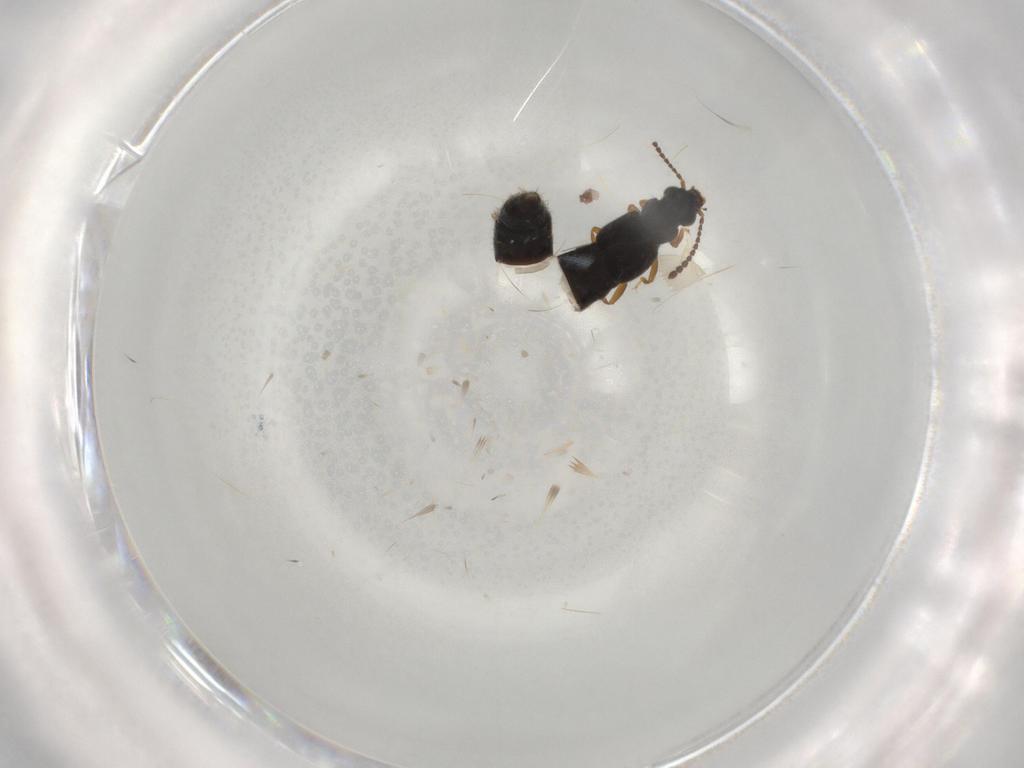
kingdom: Animalia
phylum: Arthropoda
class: Insecta
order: Coleoptera
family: Staphylinidae
